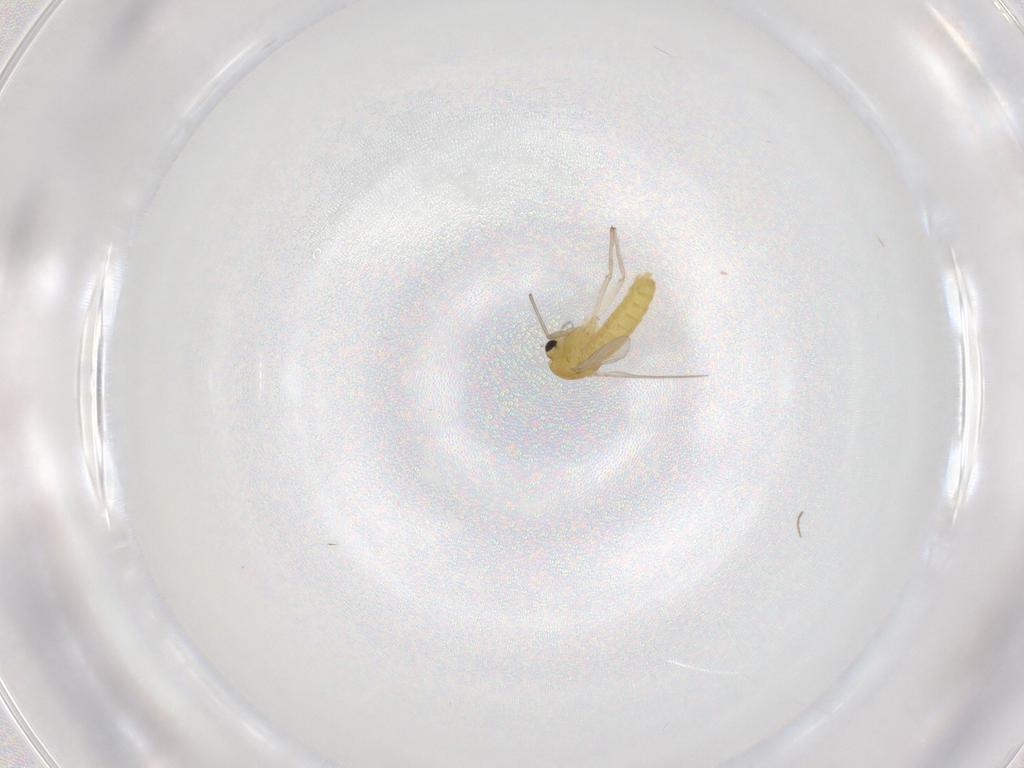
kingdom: Animalia
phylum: Arthropoda
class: Insecta
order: Diptera
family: Chironomidae
